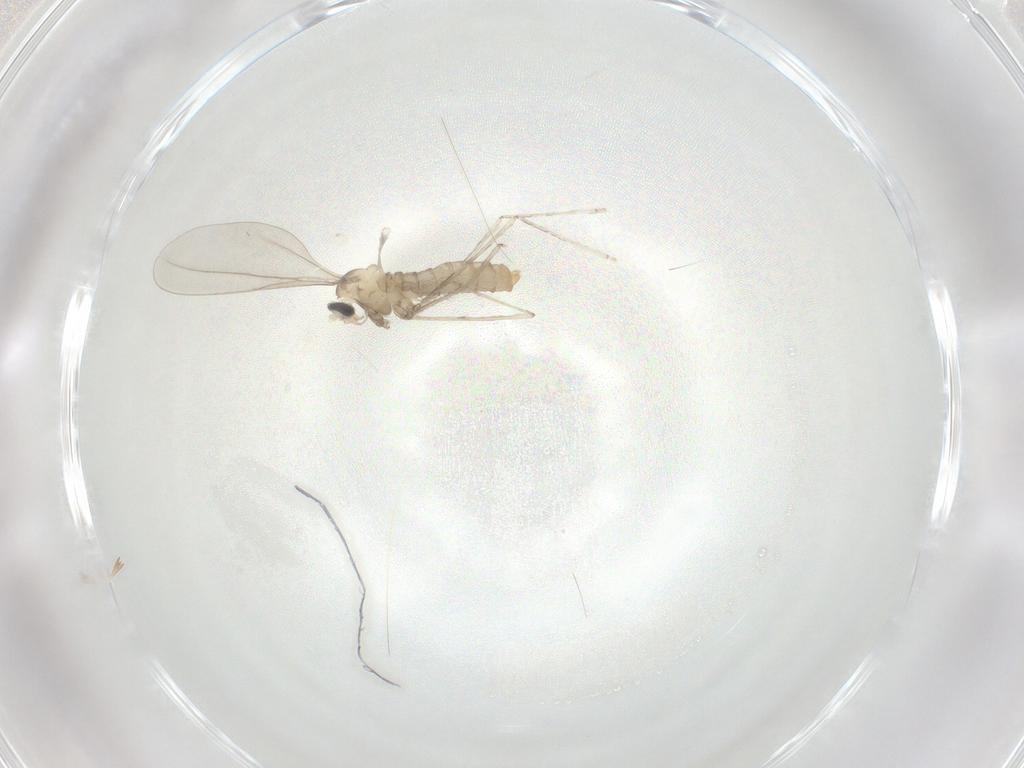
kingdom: Animalia
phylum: Arthropoda
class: Insecta
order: Diptera
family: Cecidomyiidae
